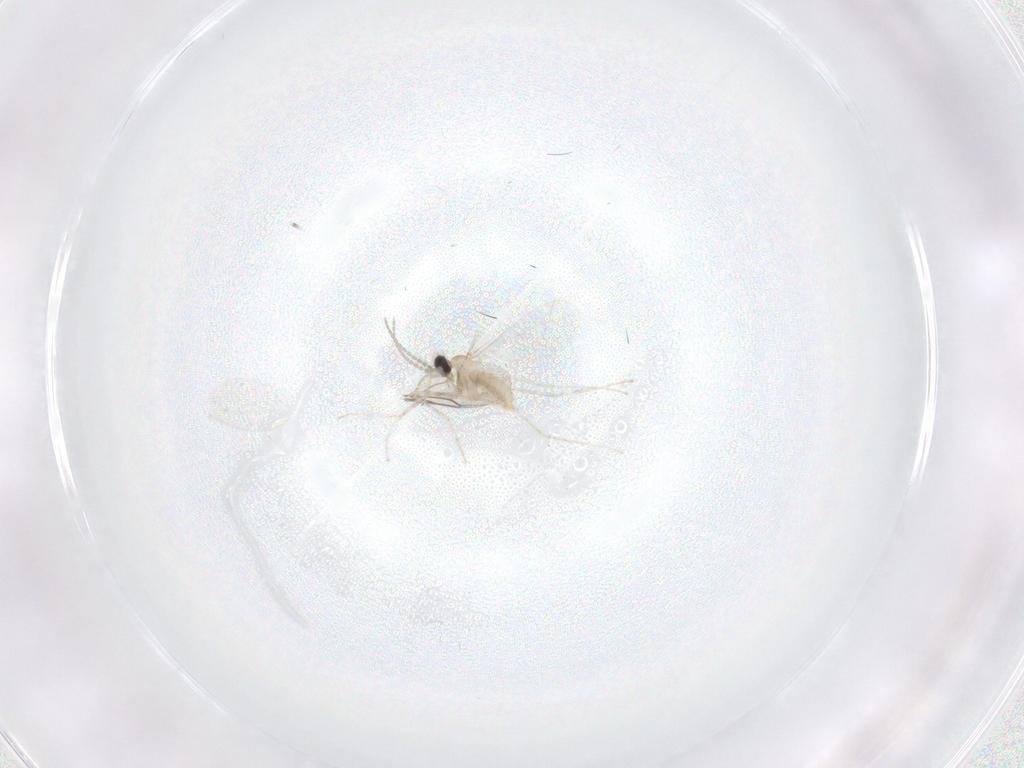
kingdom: Animalia
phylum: Arthropoda
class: Insecta
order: Diptera
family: Cecidomyiidae
